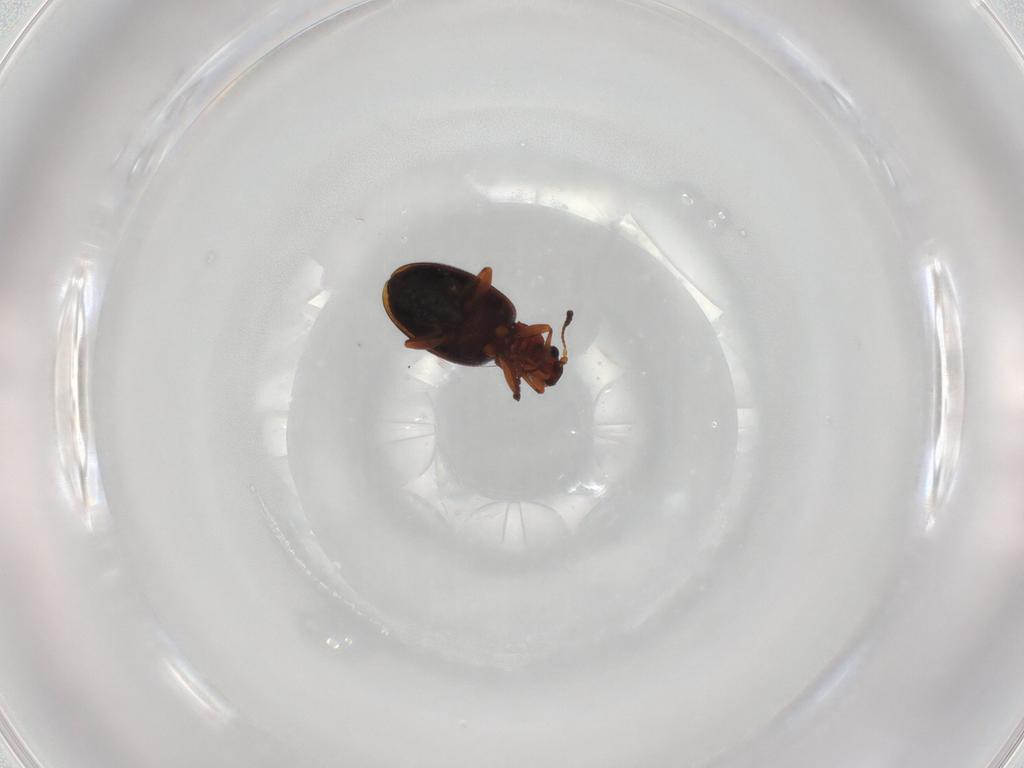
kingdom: Animalia
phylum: Arthropoda
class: Insecta
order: Coleoptera
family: Latridiidae
